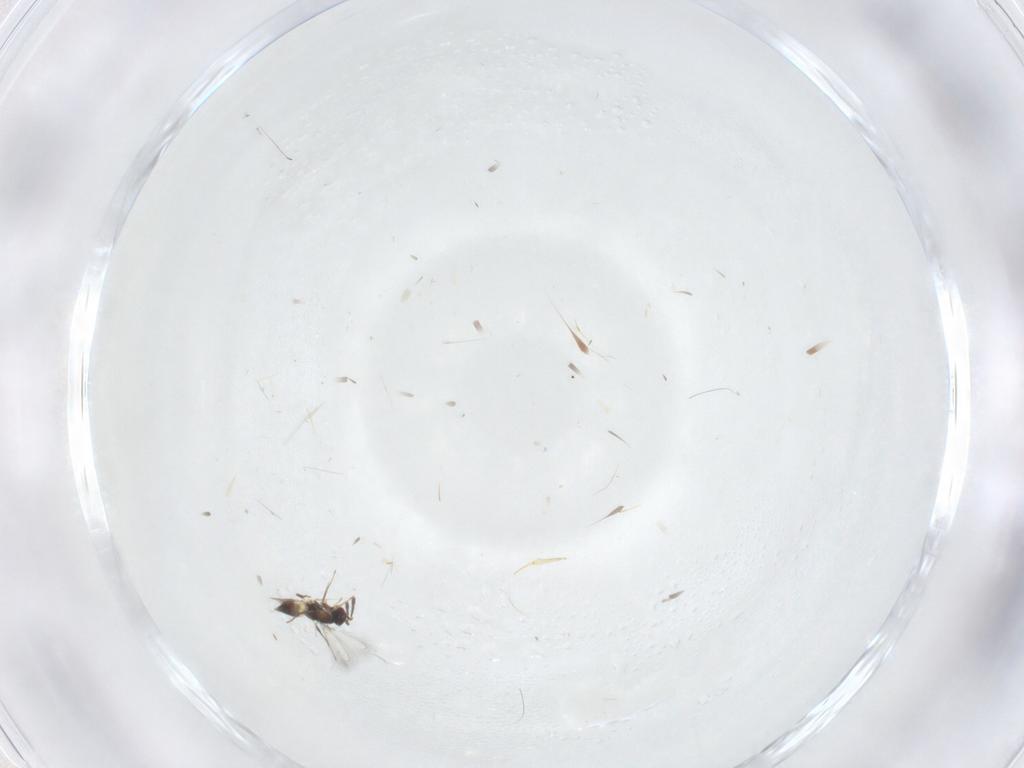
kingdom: Animalia
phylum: Arthropoda
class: Insecta
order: Hymenoptera
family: Mymaridae
